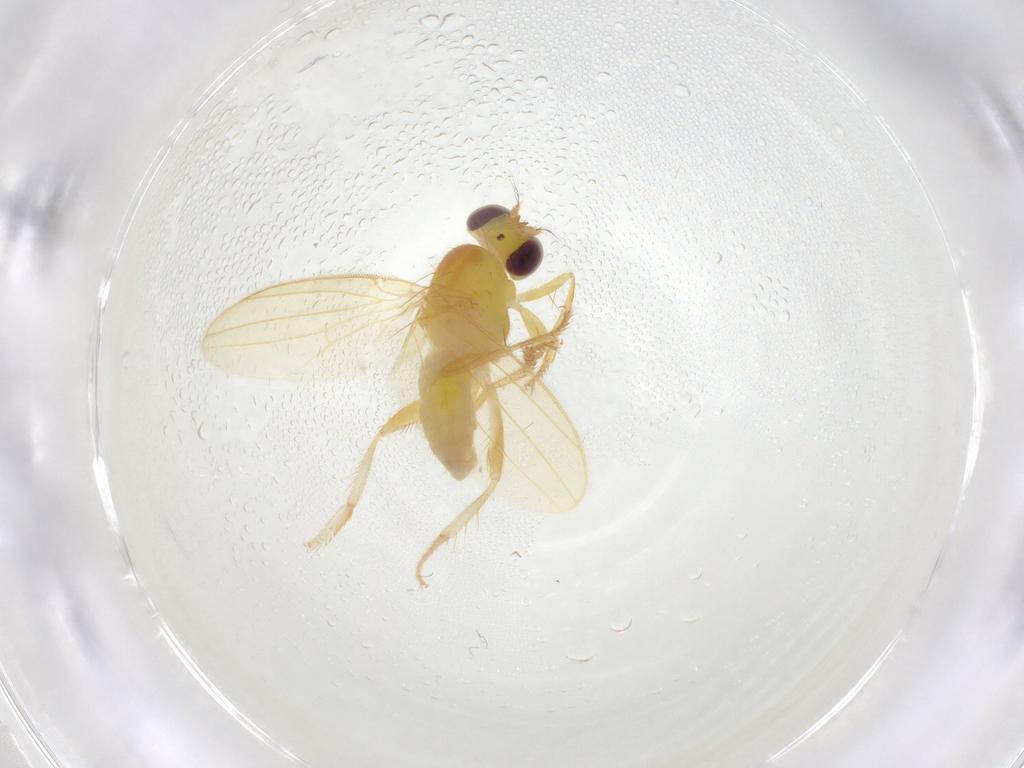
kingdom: Animalia
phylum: Arthropoda
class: Insecta
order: Diptera
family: Periscelididae
